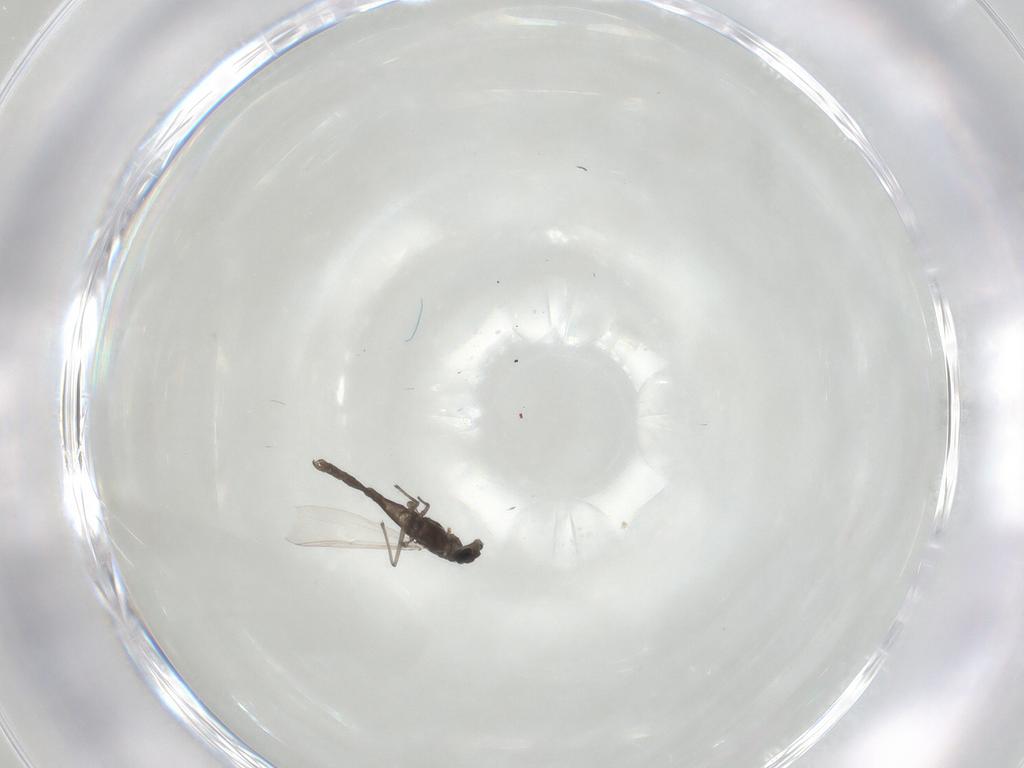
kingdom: Animalia
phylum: Arthropoda
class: Insecta
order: Diptera
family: Chironomidae
